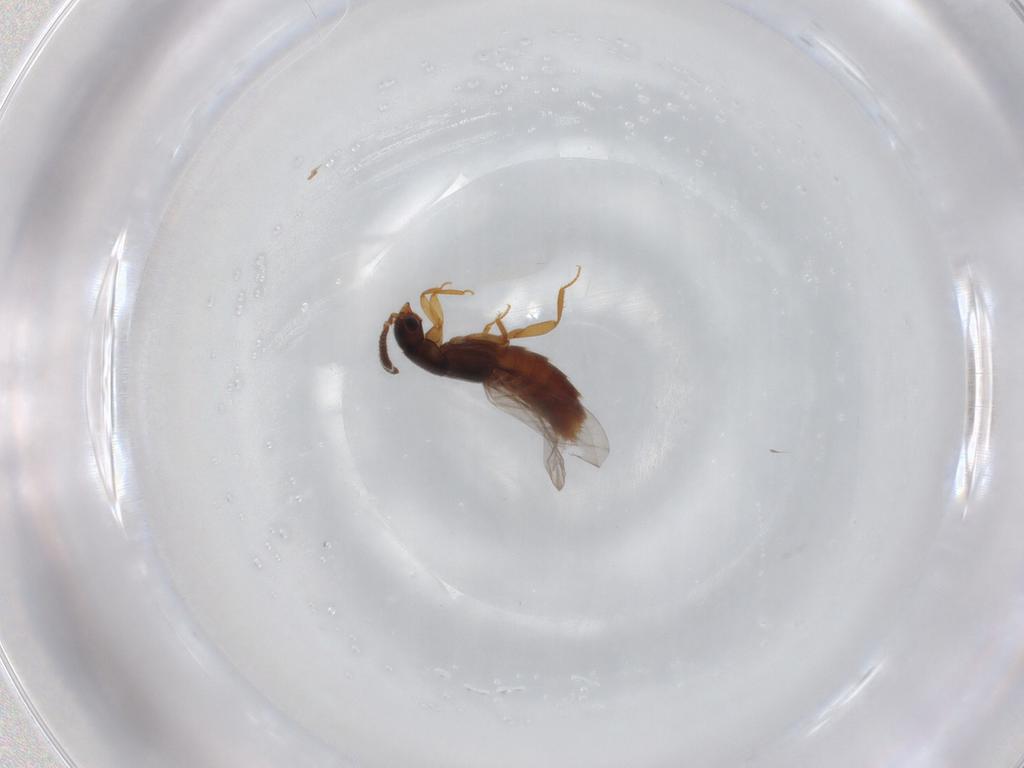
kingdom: Animalia
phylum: Arthropoda
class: Insecta
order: Coleoptera
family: Staphylinidae
